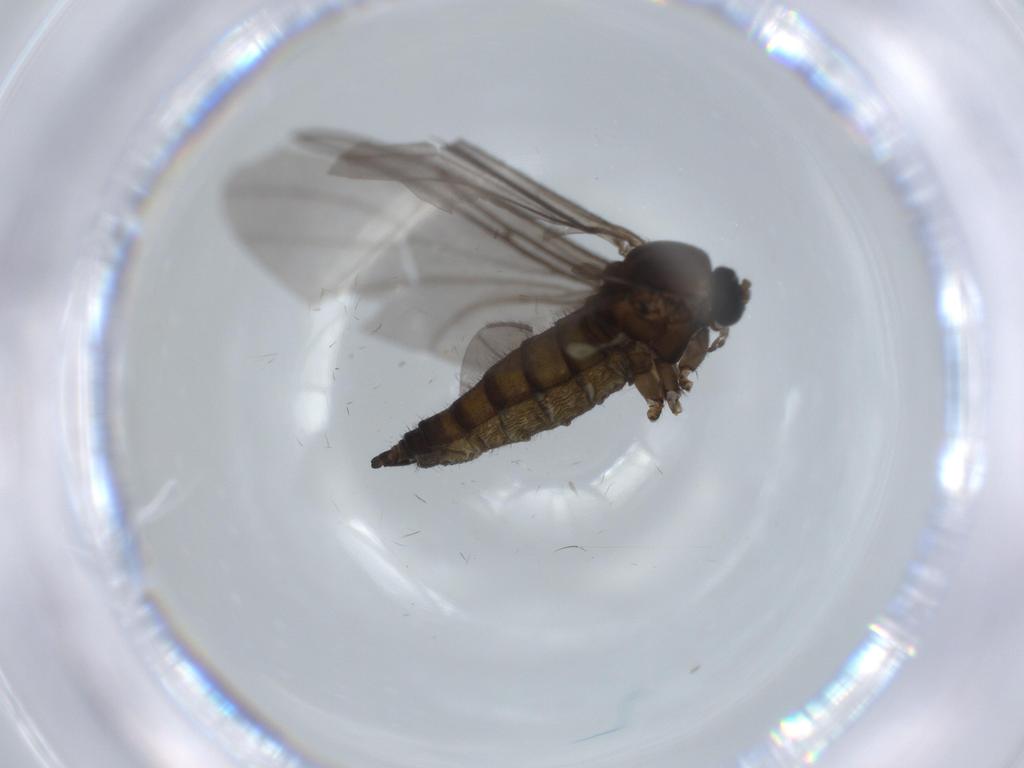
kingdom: Animalia
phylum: Arthropoda
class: Insecta
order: Diptera
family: Sciaridae
